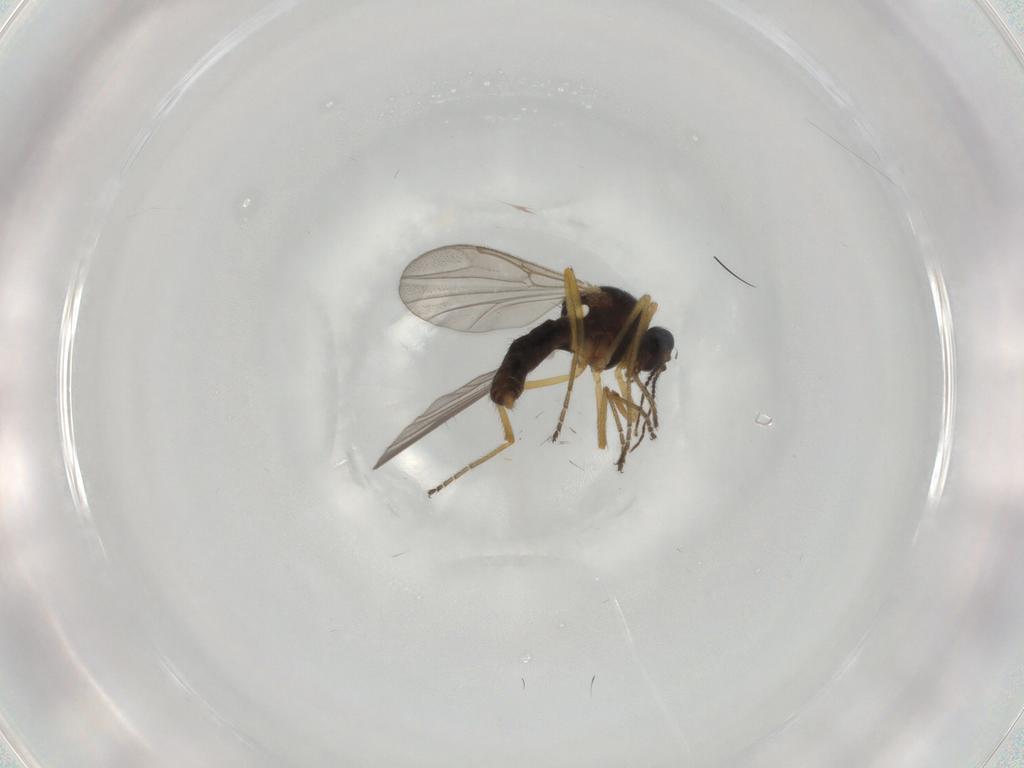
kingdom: Animalia
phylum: Arthropoda
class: Insecta
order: Diptera
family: Ceratopogonidae
